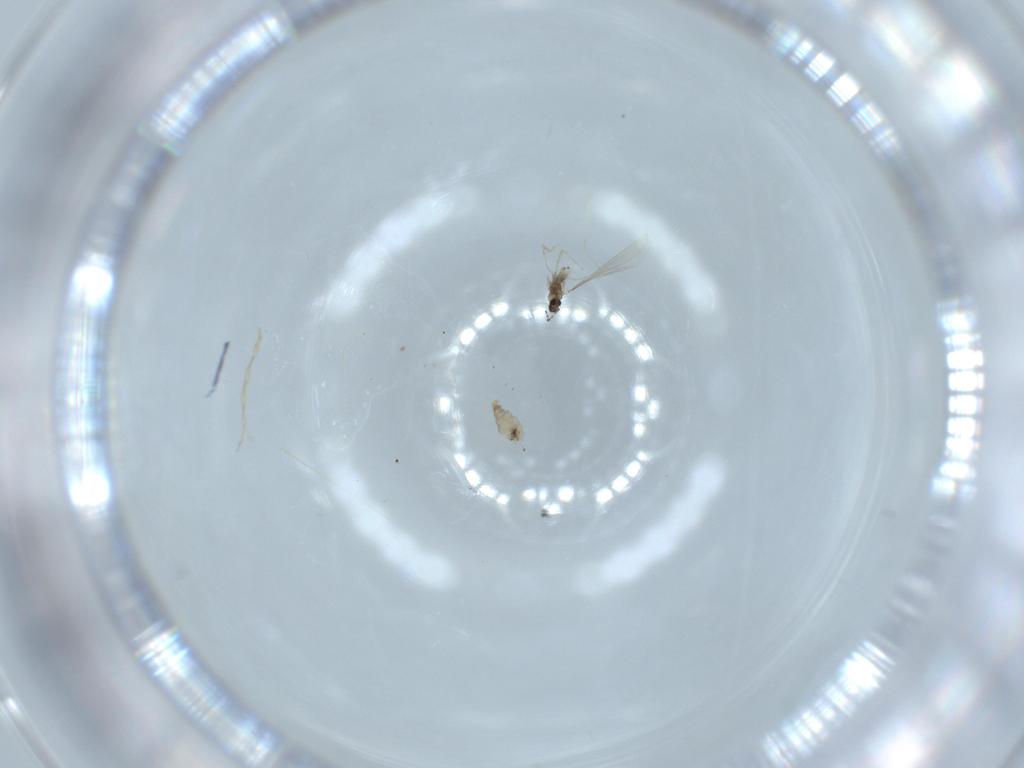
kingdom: Animalia
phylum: Arthropoda
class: Insecta
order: Diptera
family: Cecidomyiidae
